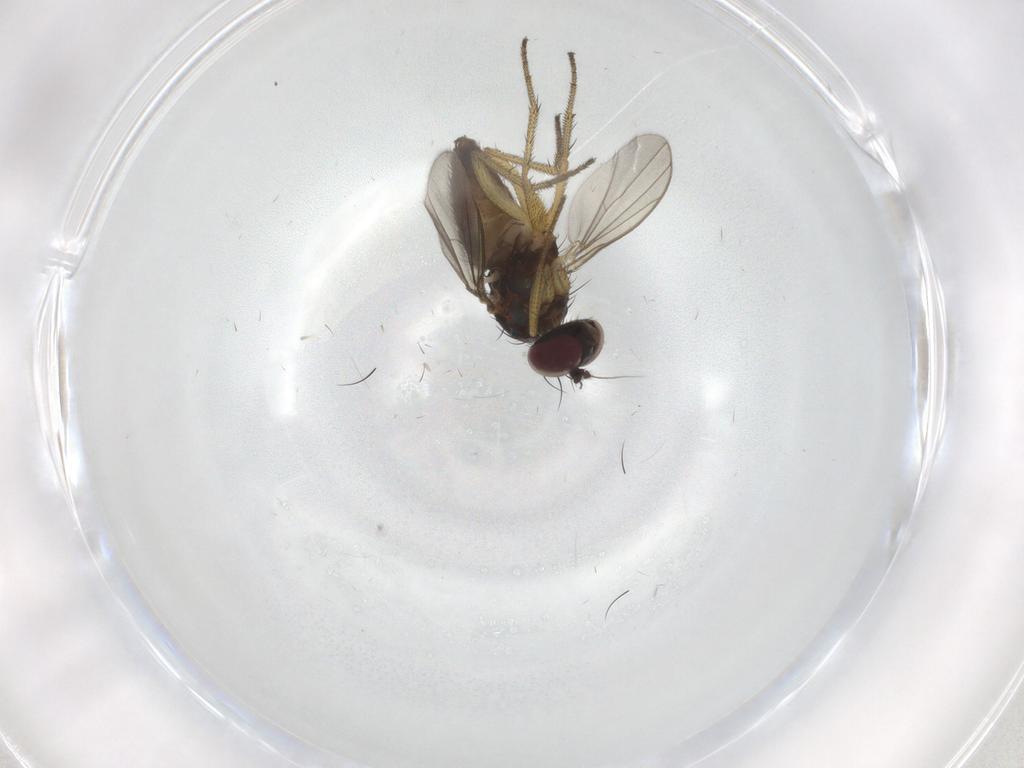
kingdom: Animalia
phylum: Arthropoda
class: Insecta
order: Diptera
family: Dolichopodidae
